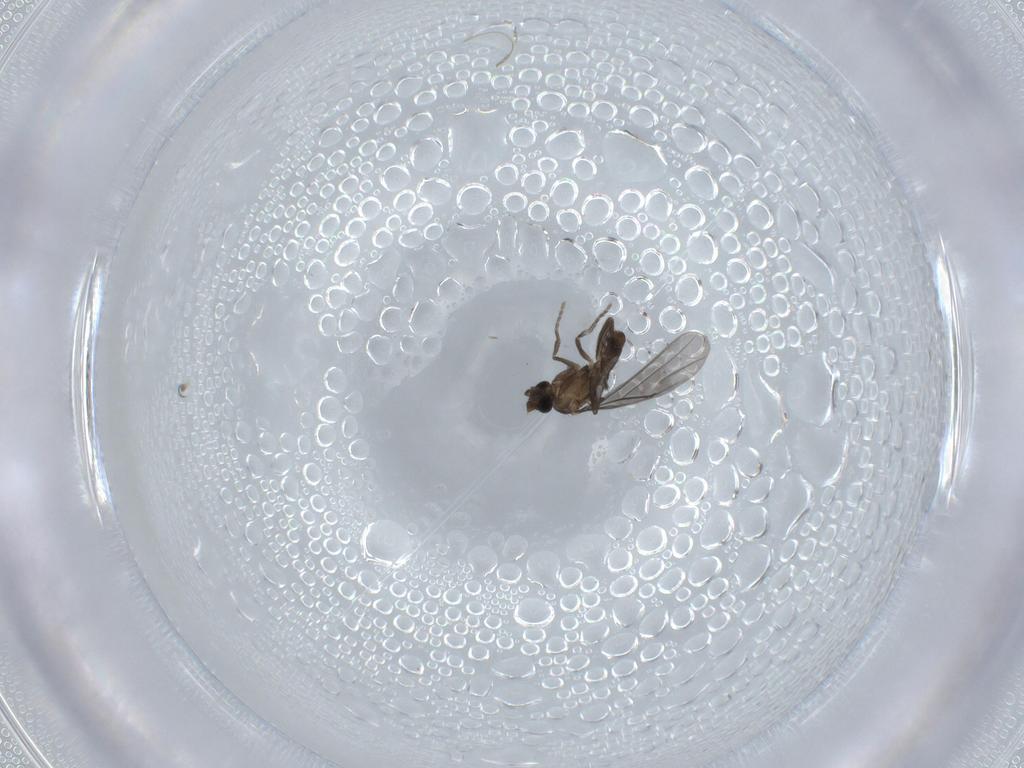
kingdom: Animalia
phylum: Arthropoda
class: Insecta
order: Diptera
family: Phoridae
